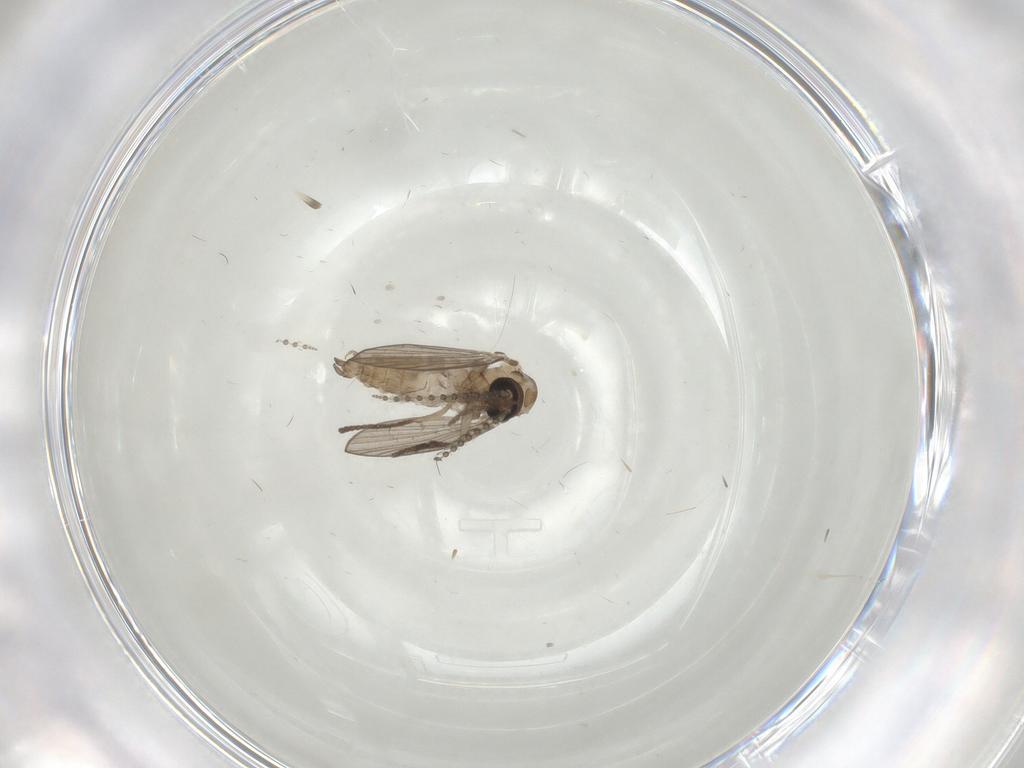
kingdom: Animalia
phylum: Arthropoda
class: Insecta
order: Diptera
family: Psychodidae
